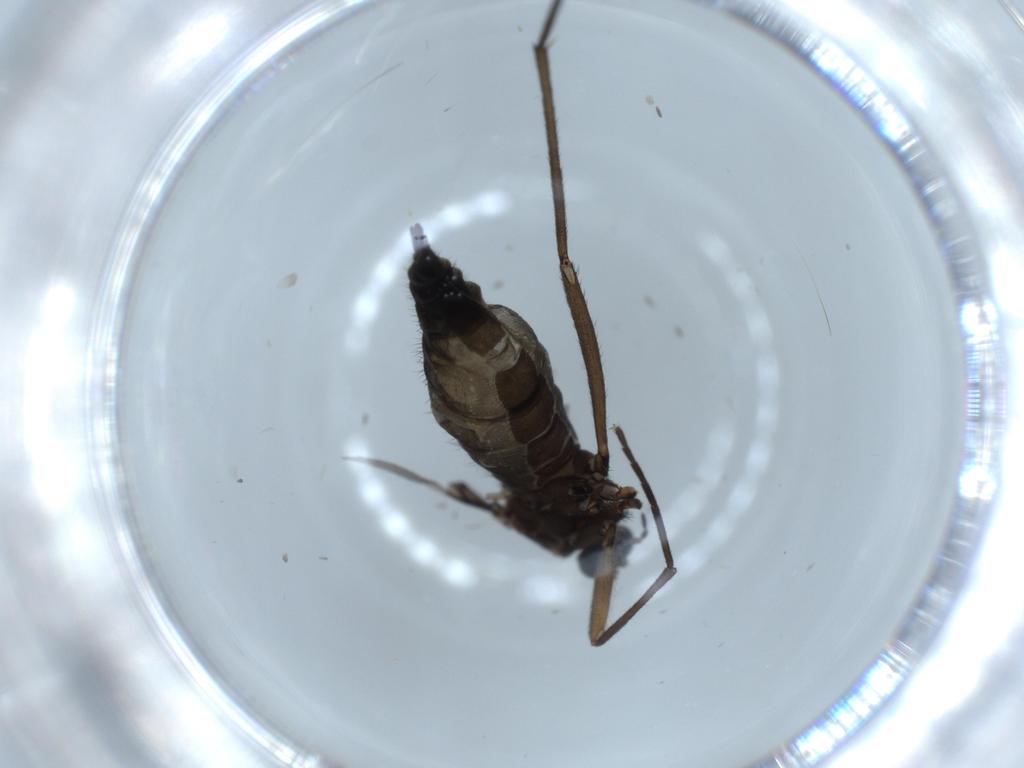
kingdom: Animalia
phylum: Arthropoda
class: Insecta
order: Diptera
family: Sciaridae
